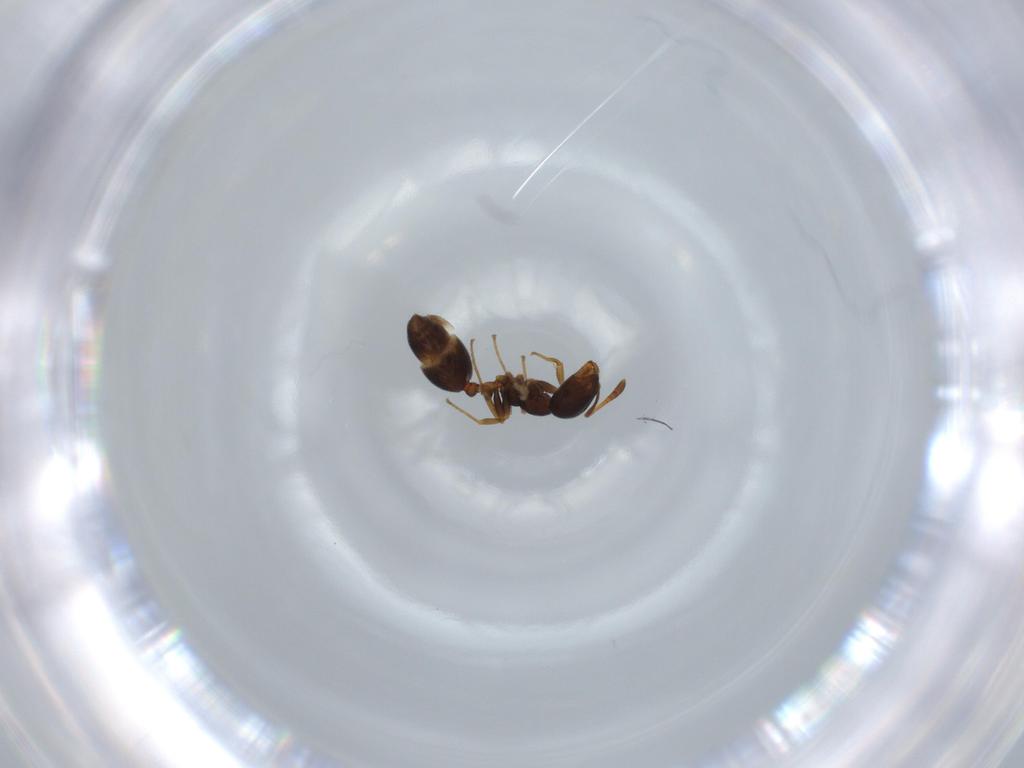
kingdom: Animalia
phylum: Arthropoda
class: Insecta
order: Hymenoptera
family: Formicidae
